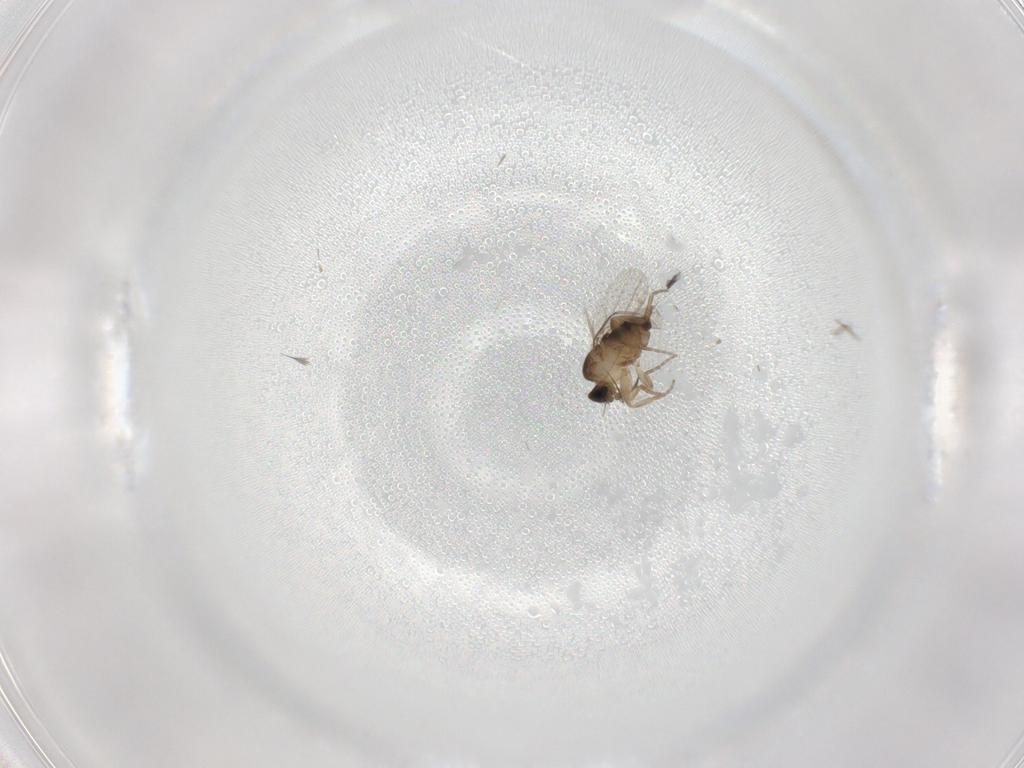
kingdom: Animalia
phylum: Arthropoda
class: Insecta
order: Diptera
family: Phoridae
